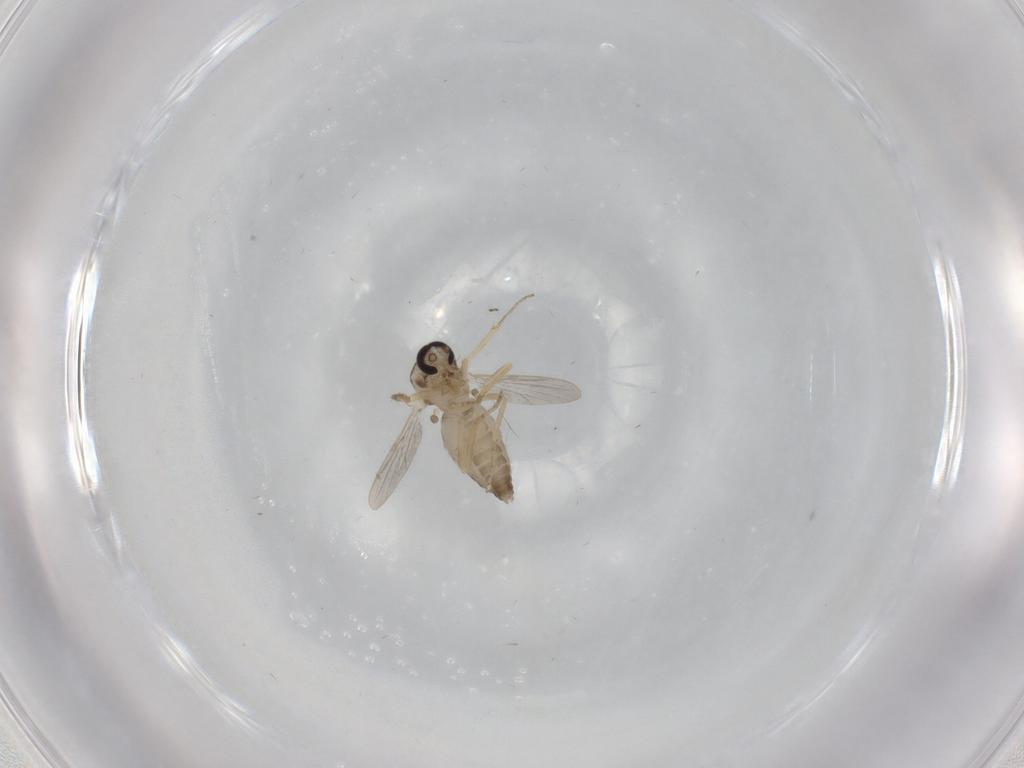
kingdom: Animalia
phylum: Arthropoda
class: Insecta
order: Diptera
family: Ceratopogonidae
